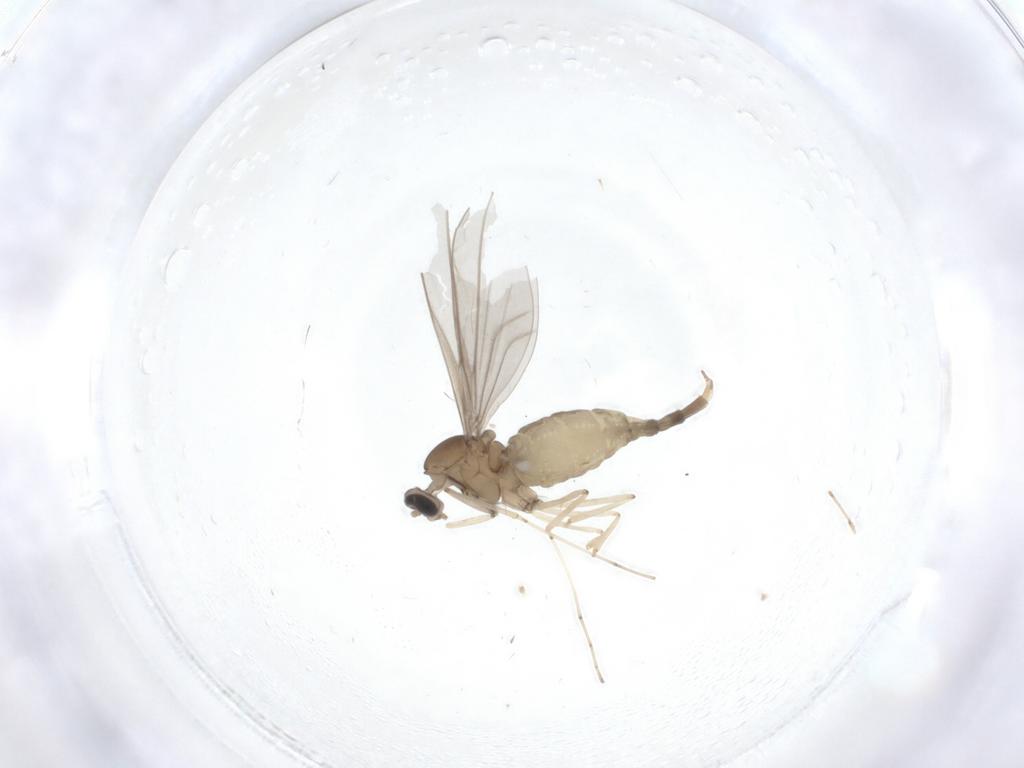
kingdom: Animalia
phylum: Arthropoda
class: Insecta
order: Diptera
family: Cecidomyiidae
